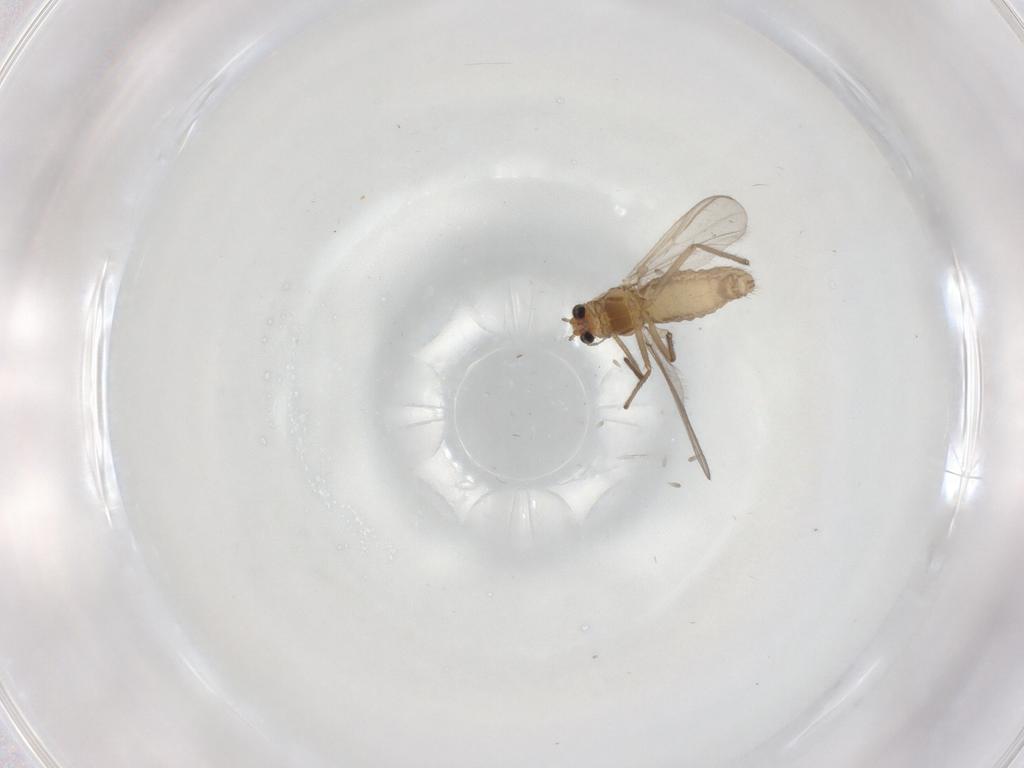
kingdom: Animalia
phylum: Arthropoda
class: Insecta
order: Diptera
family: Chironomidae
